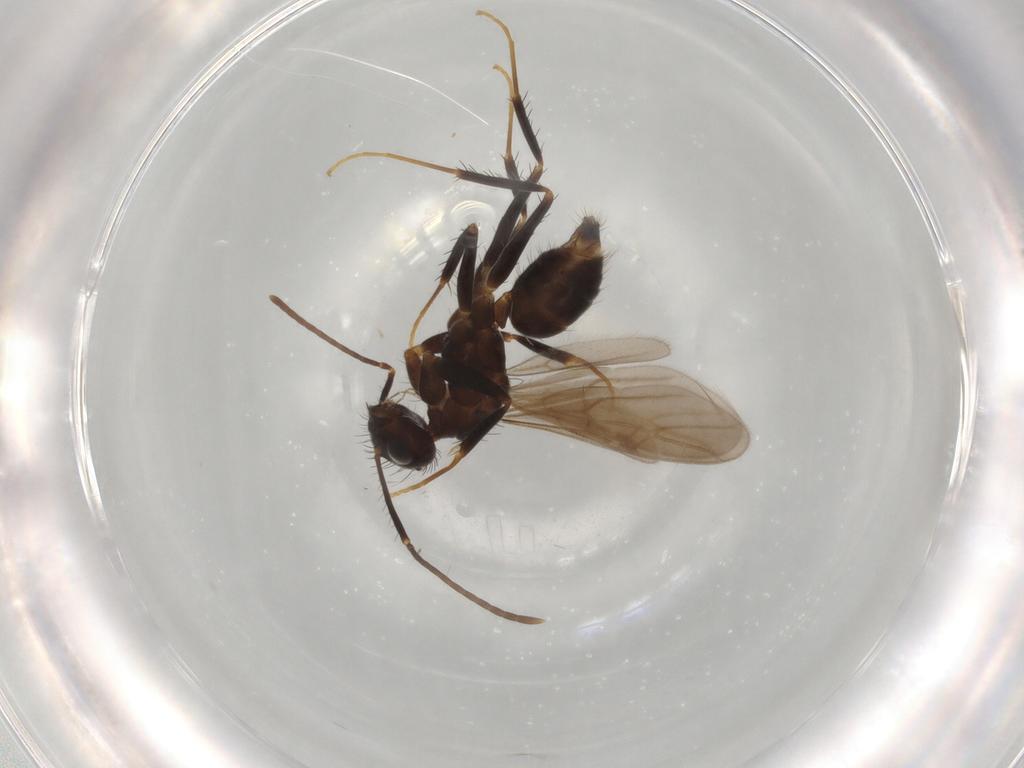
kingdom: Animalia
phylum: Arthropoda
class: Insecta
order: Hymenoptera
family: Formicidae
